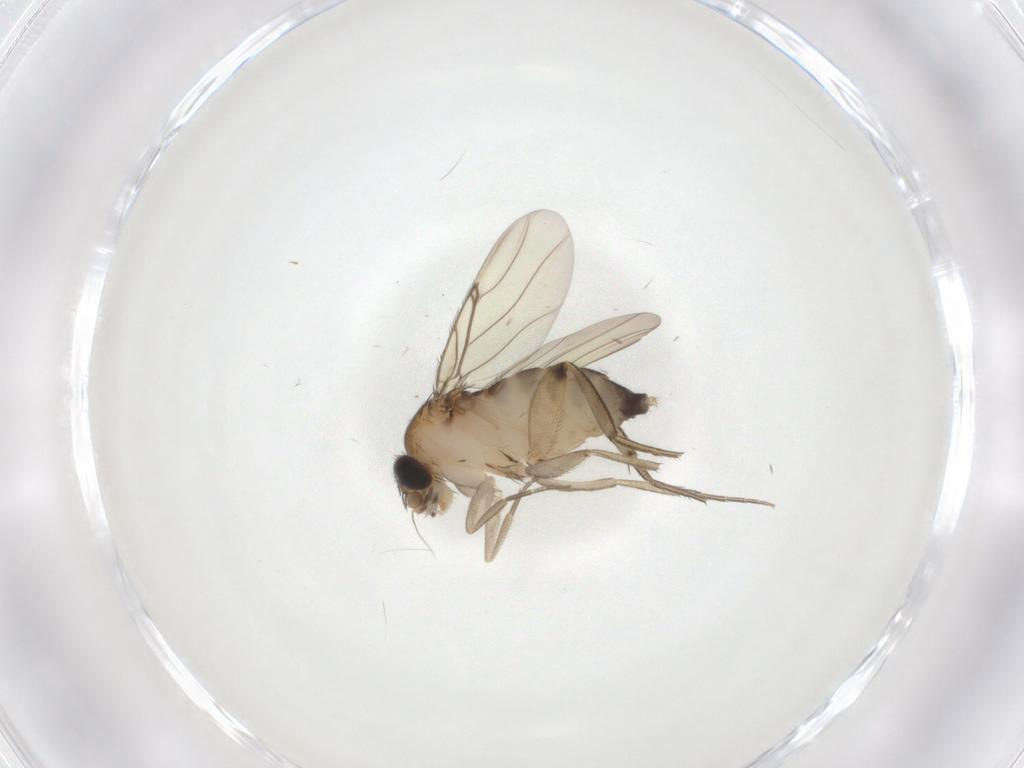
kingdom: Animalia
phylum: Arthropoda
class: Insecta
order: Diptera
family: Phoridae
